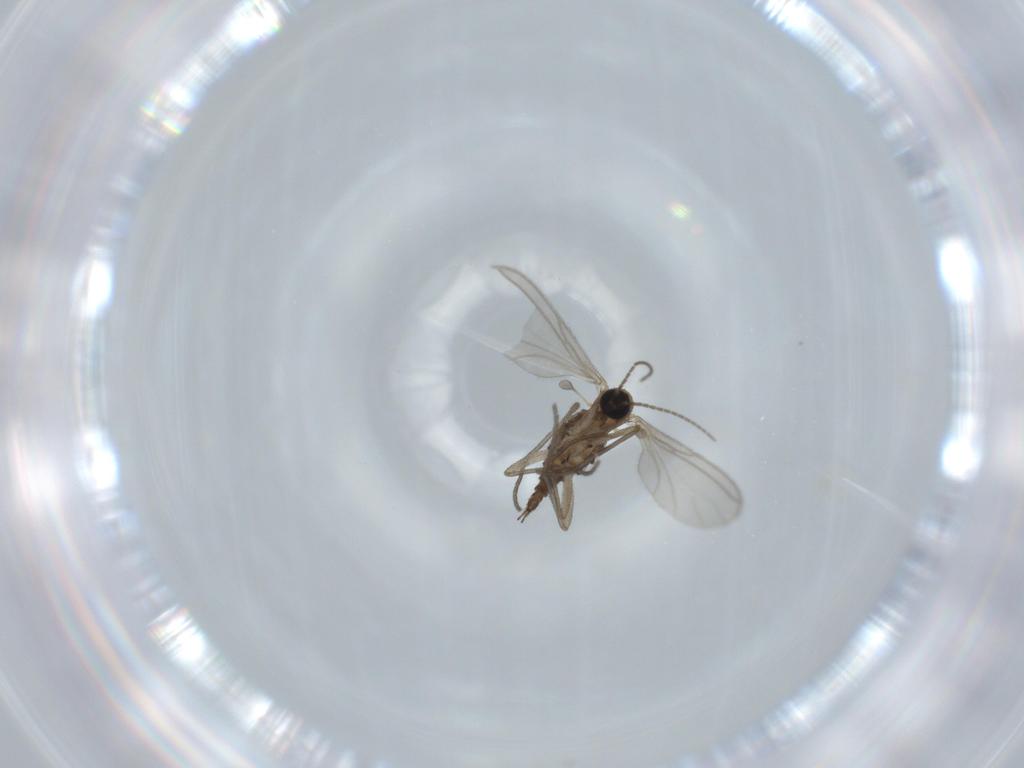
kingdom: Animalia
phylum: Arthropoda
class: Insecta
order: Diptera
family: Sciaridae
